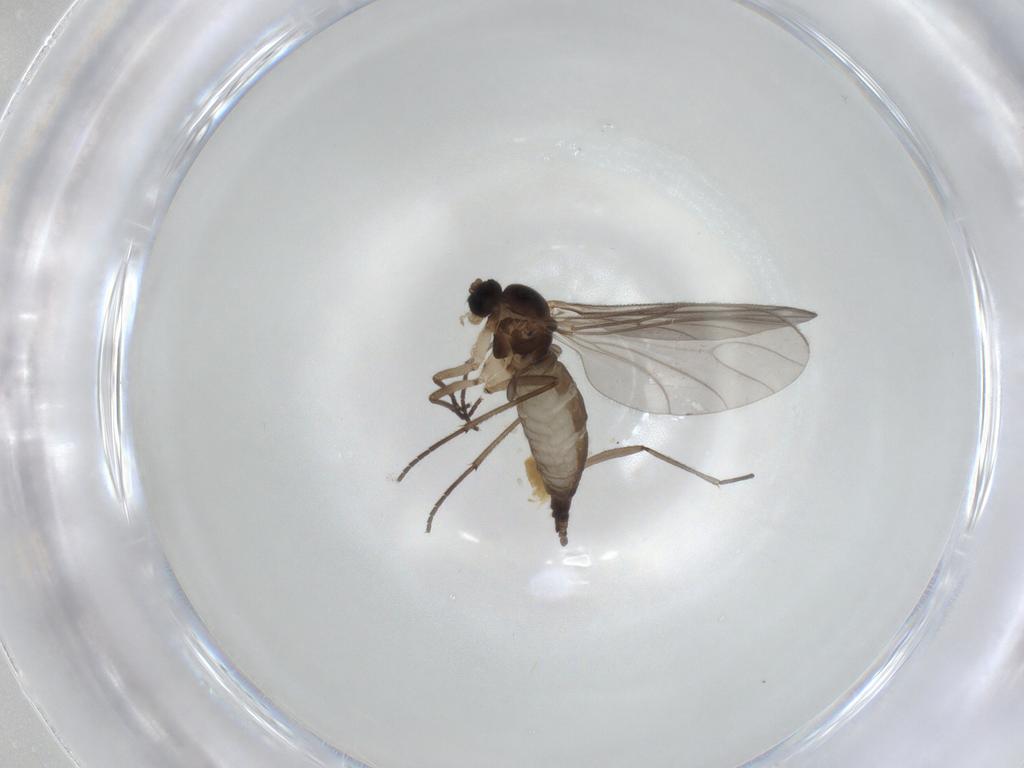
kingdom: Animalia
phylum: Arthropoda
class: Insecta
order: Diptera
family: Sciaridae
